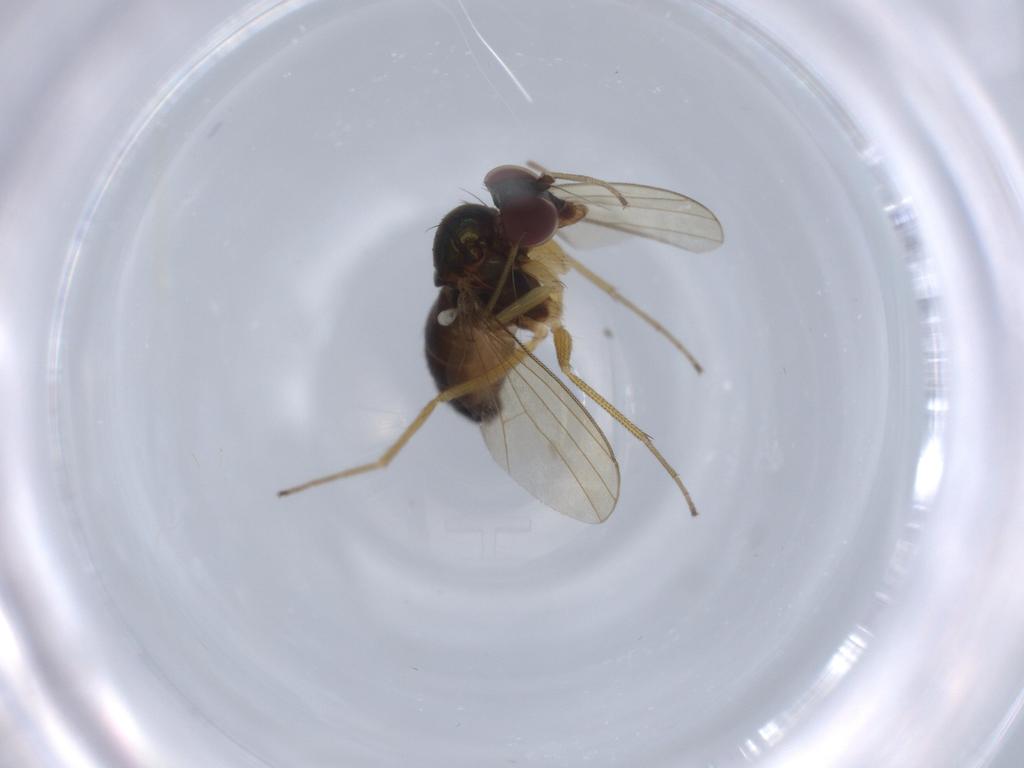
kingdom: Animalia
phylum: Arthropoda
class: Insecta
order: Diptera
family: Dolichopodidae
